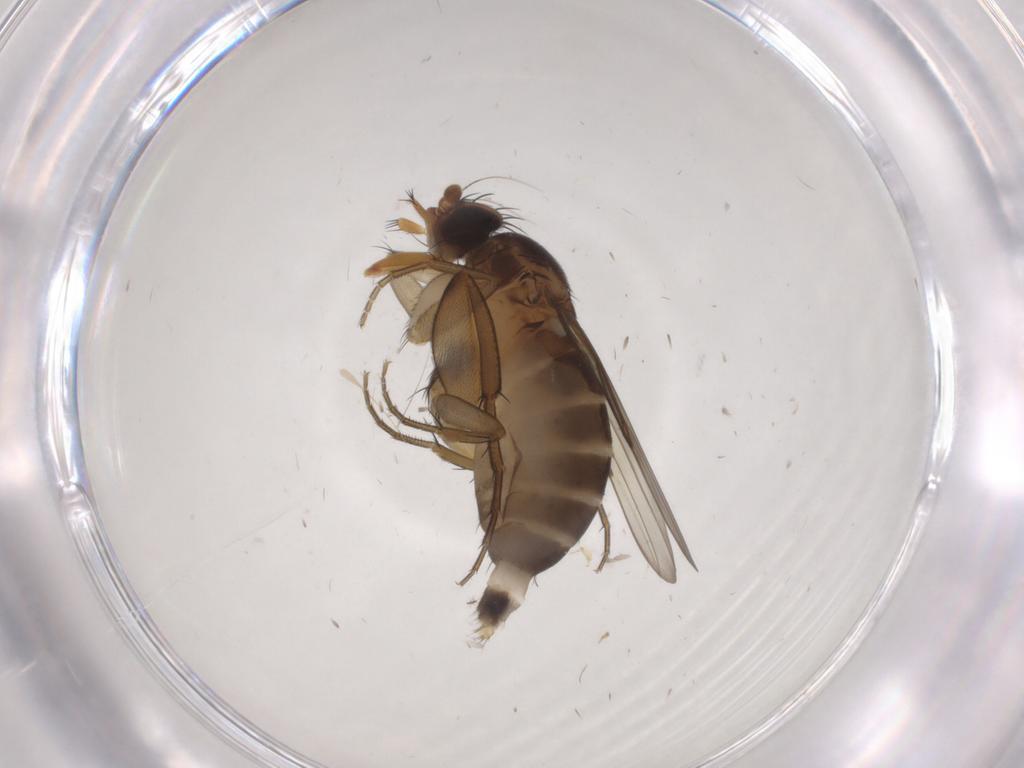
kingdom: Animalia
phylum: Arthropoda
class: Insecta
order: Diptera
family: Phoridae
